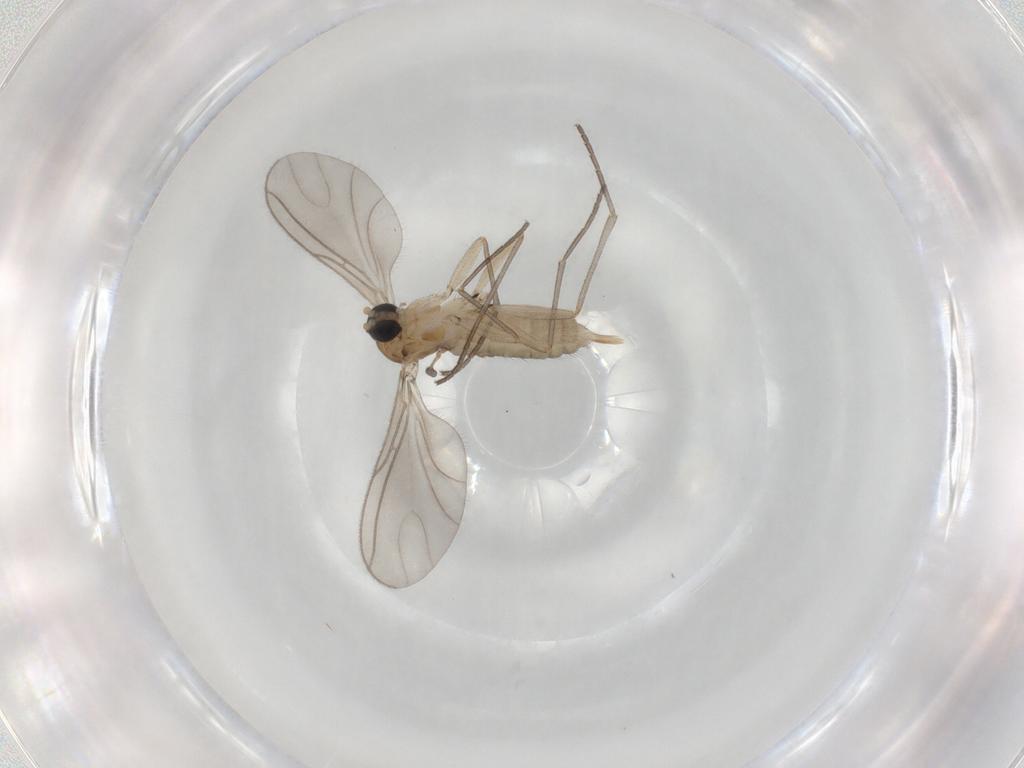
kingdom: Animalia
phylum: Arthropoda
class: Insecta
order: Diptera
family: Sciaridae
